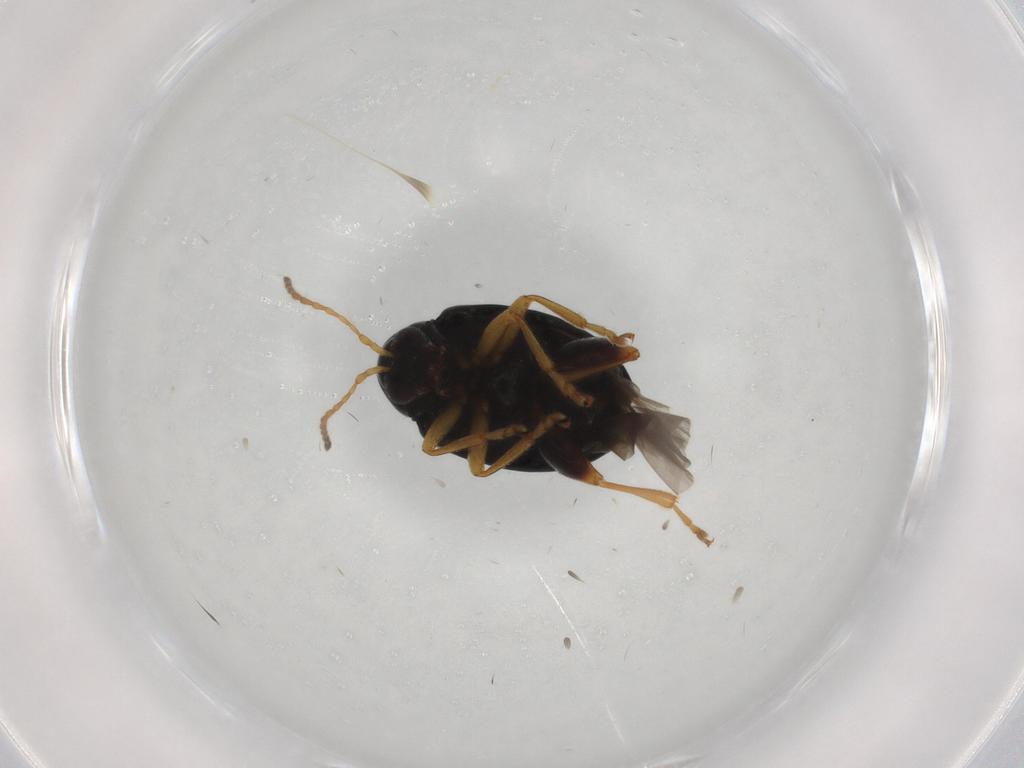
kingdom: Animalia
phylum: Arthropoda
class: Insecta
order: Coleoptera
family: Chrysomelidae
